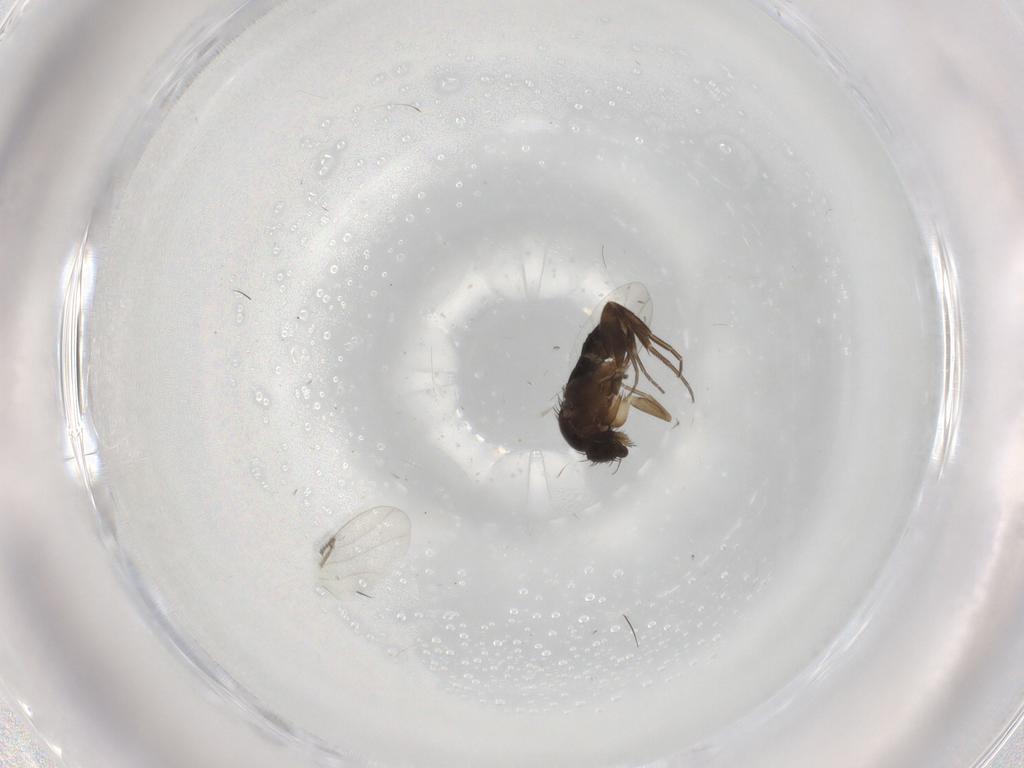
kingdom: Animalia
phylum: Arthropoda
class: Insecta
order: Diptera
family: Phoridae
